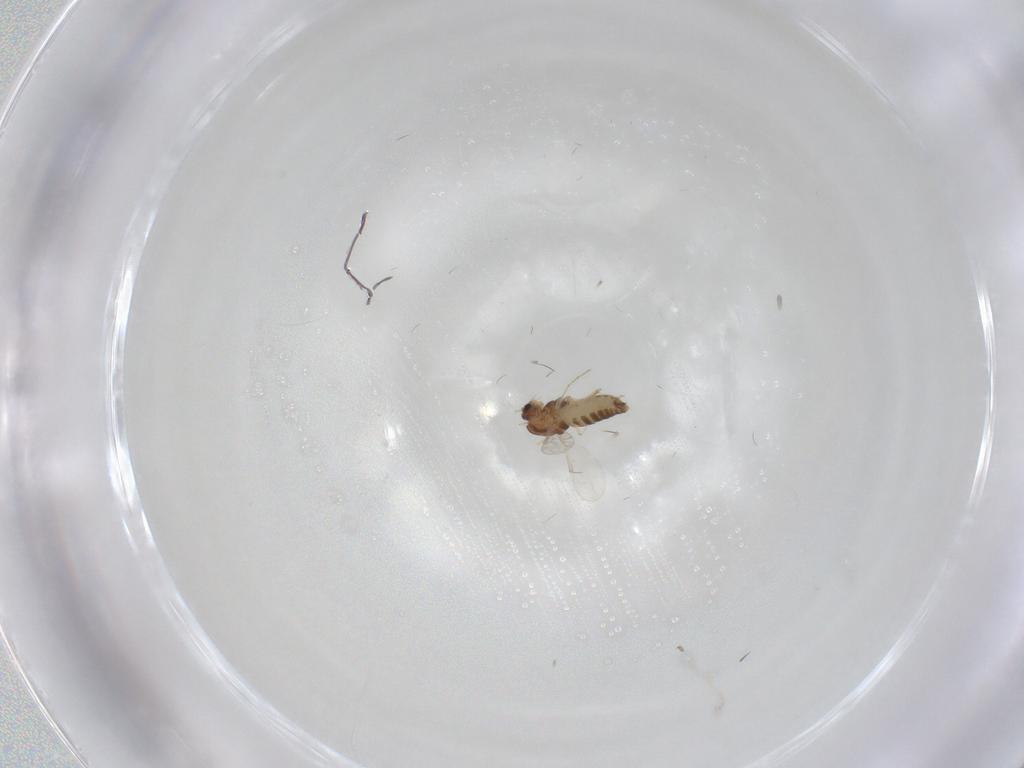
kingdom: Animalia
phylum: Arthropoda
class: Insecta
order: Diptera
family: Chironomidae
